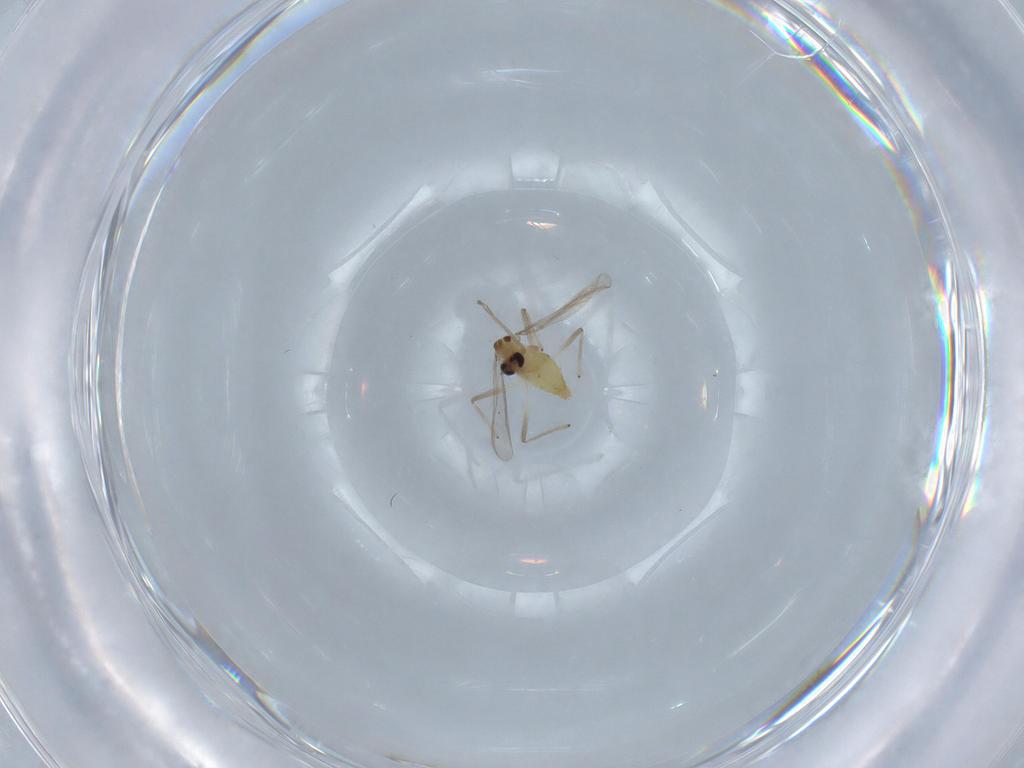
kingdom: Animalia
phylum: Arthropoda
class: Insecta
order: Diptera
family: Chironomidae
